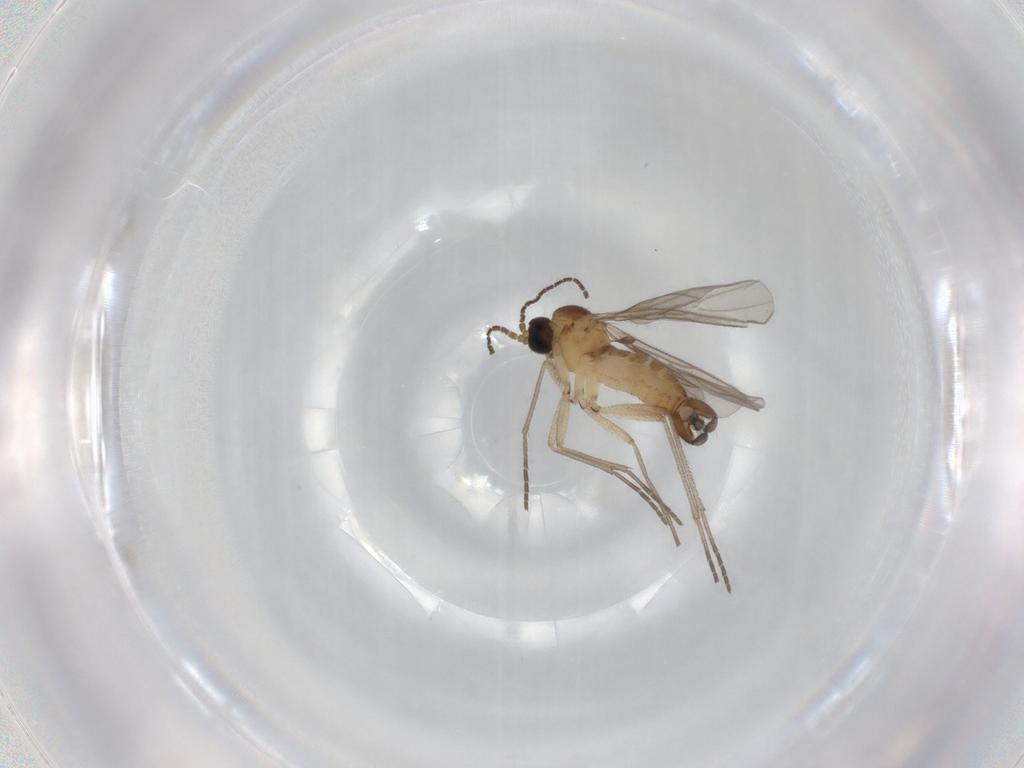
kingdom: Animalia
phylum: Arthropoda
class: Insecta
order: Diptera
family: Sciaridae
